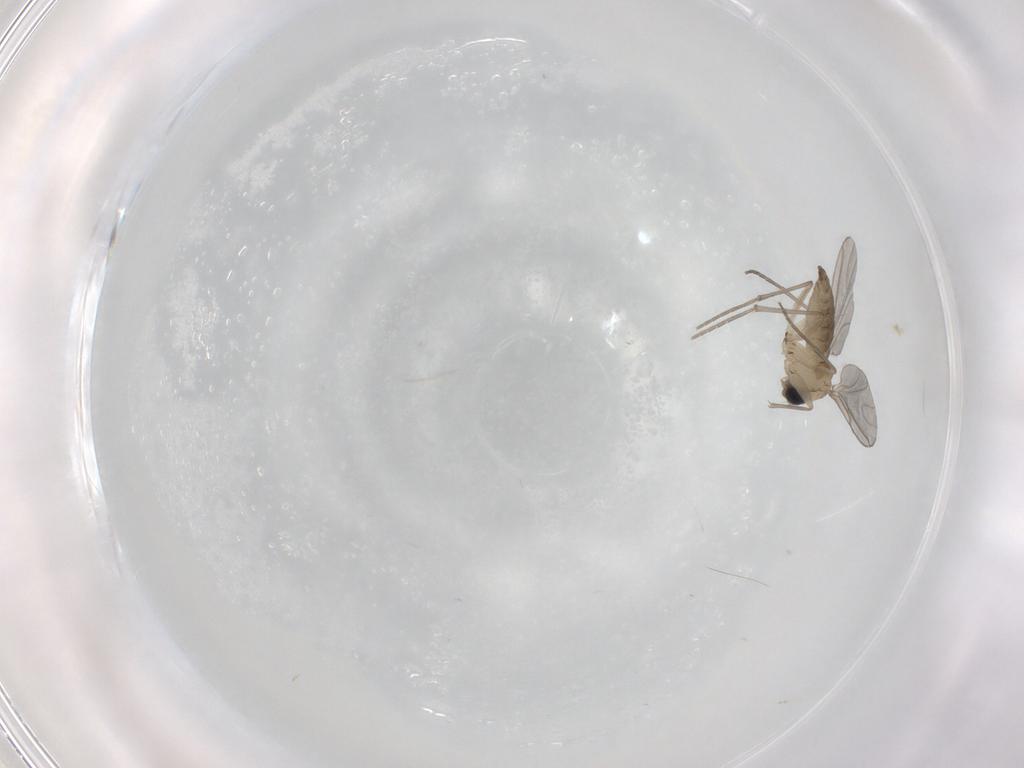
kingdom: Animalia
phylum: Arthropoda
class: Insecta
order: Diptera
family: Sciaridae
